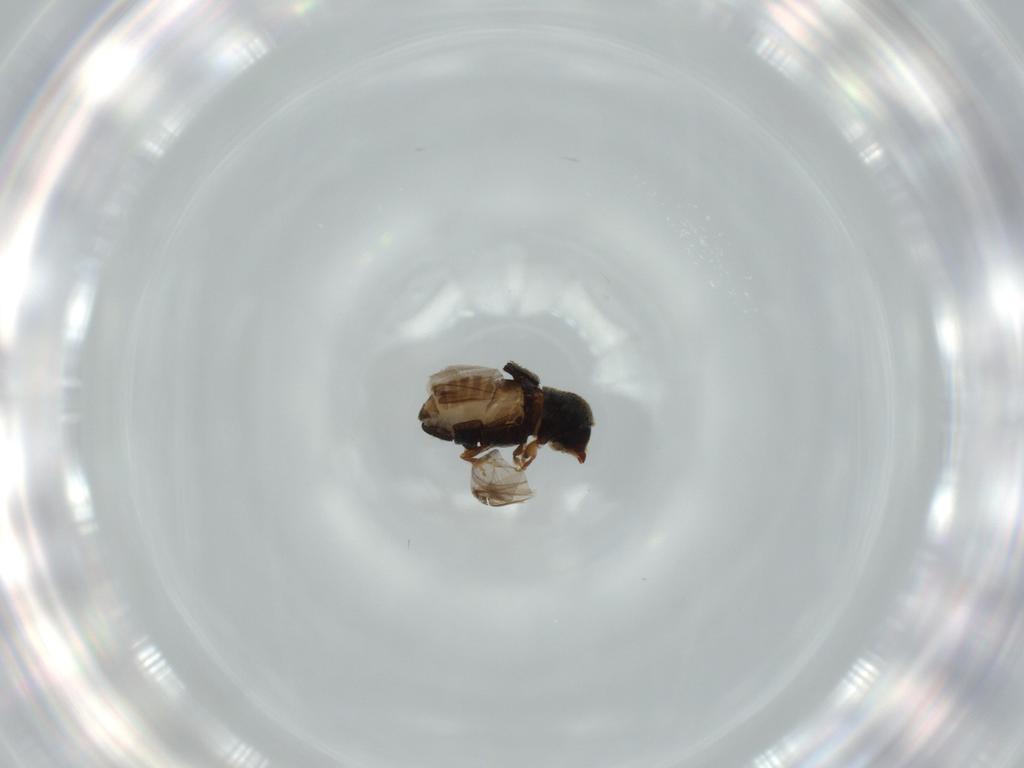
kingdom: Animalia
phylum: Arthropoda
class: Insecta
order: Coleoptera
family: Curculionidae
